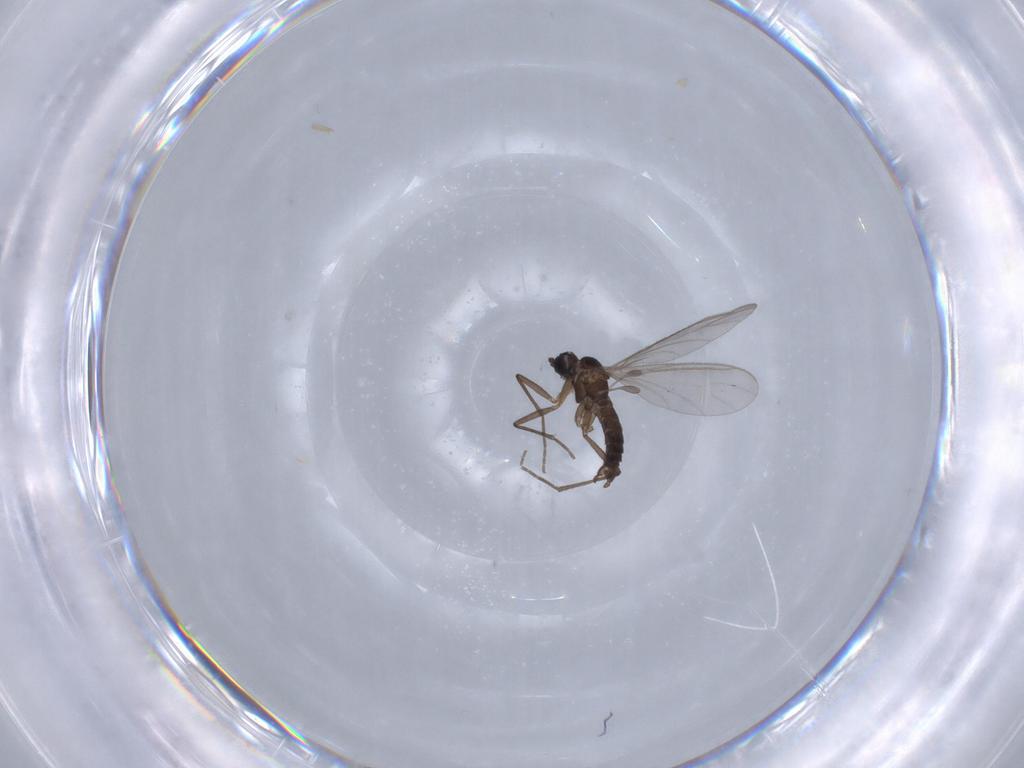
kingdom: Animalia
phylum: Arthropoda
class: Insecta
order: Diptera
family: Sciaridae
